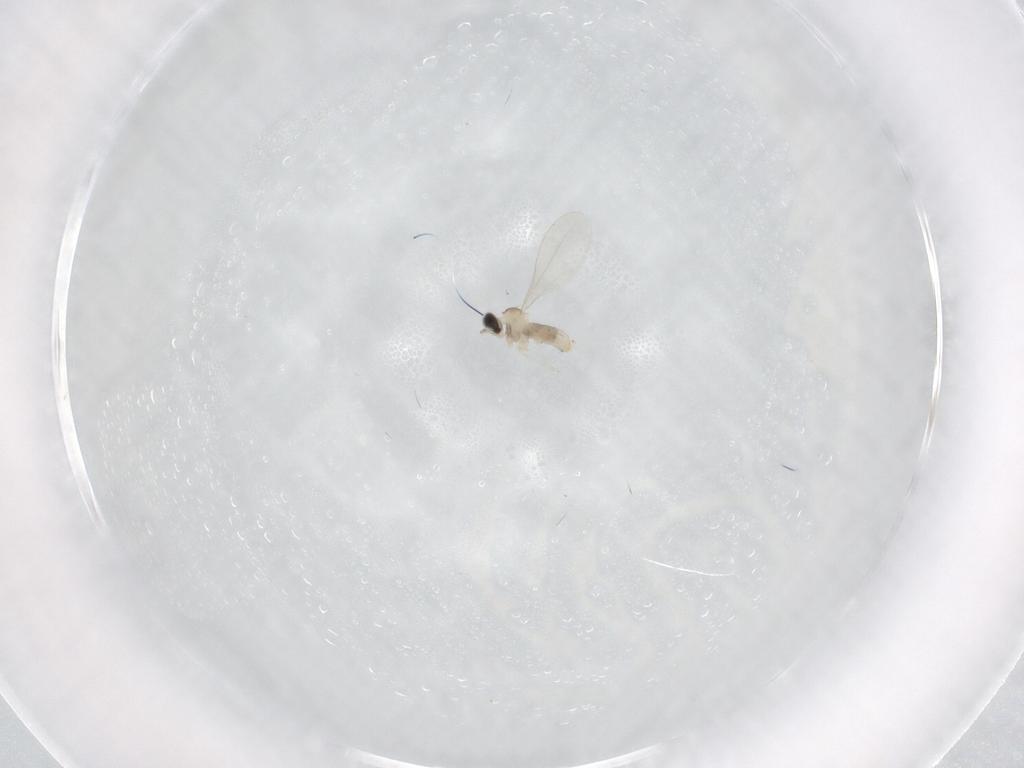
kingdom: Animalia
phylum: Arthropoda
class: Insecta
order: Diptera
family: Cecidomyiidae
